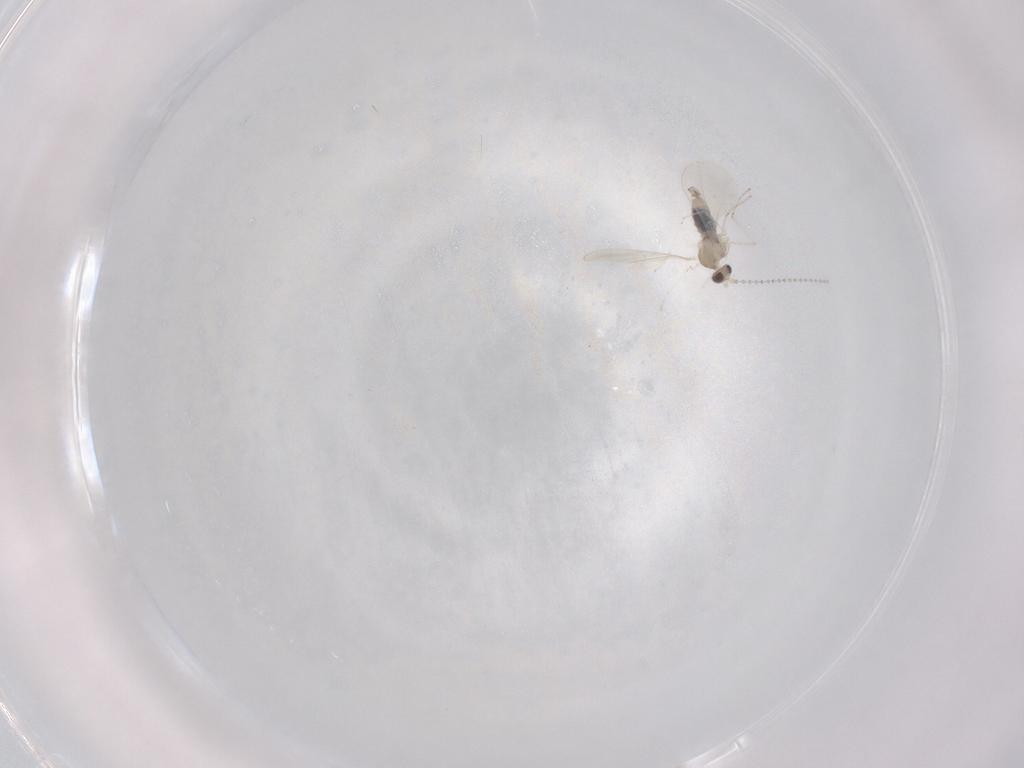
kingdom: Animalia
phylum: Arthropoda
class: Insecta
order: Diptera
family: Phoridae
